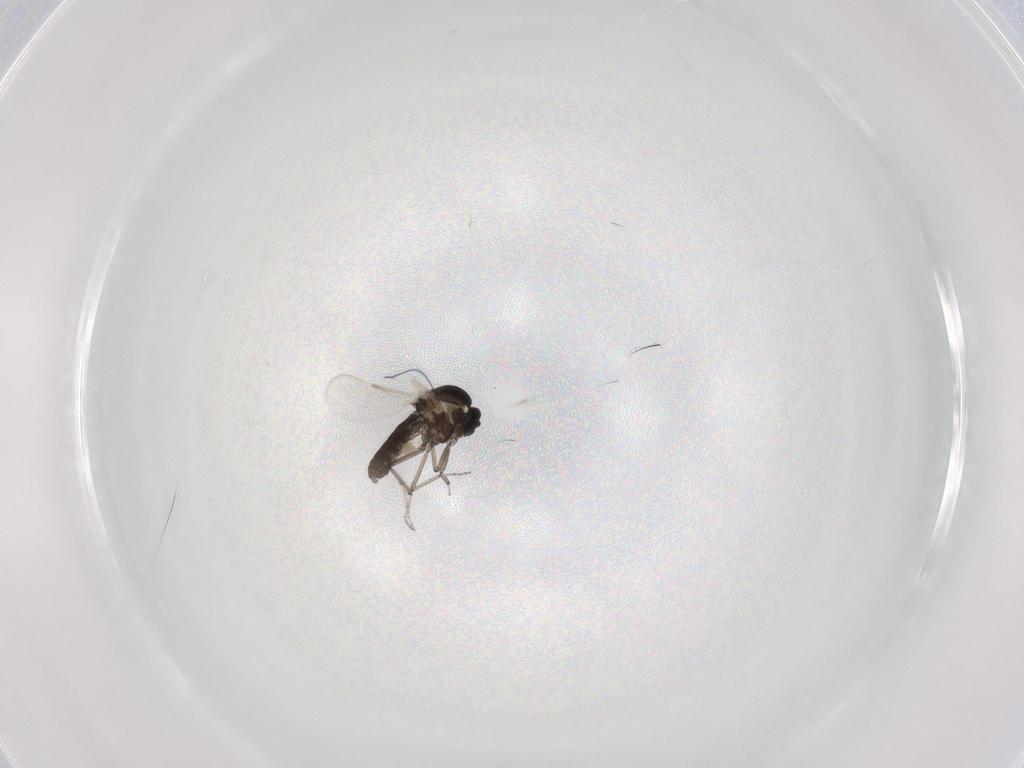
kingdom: Animalia
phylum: Arthropoda
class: Insecta
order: Diptera
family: Ceratopogonidae
